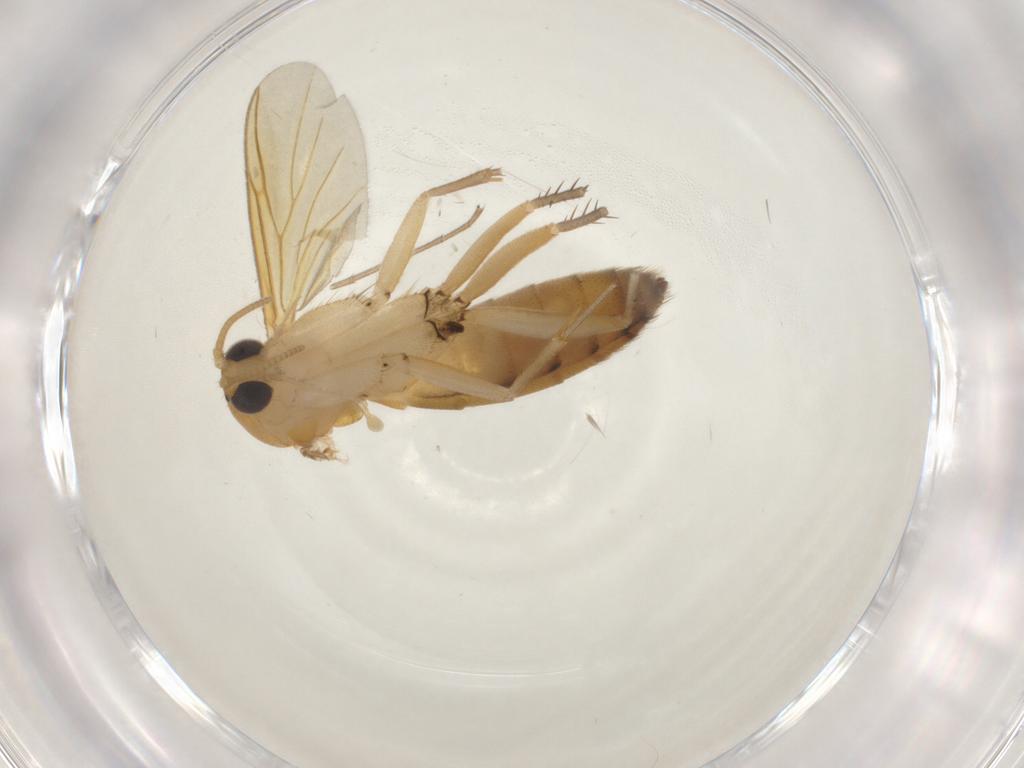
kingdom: Animalia
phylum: Arthropoda
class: Insecta
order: Diptera
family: Mycetophilidae
